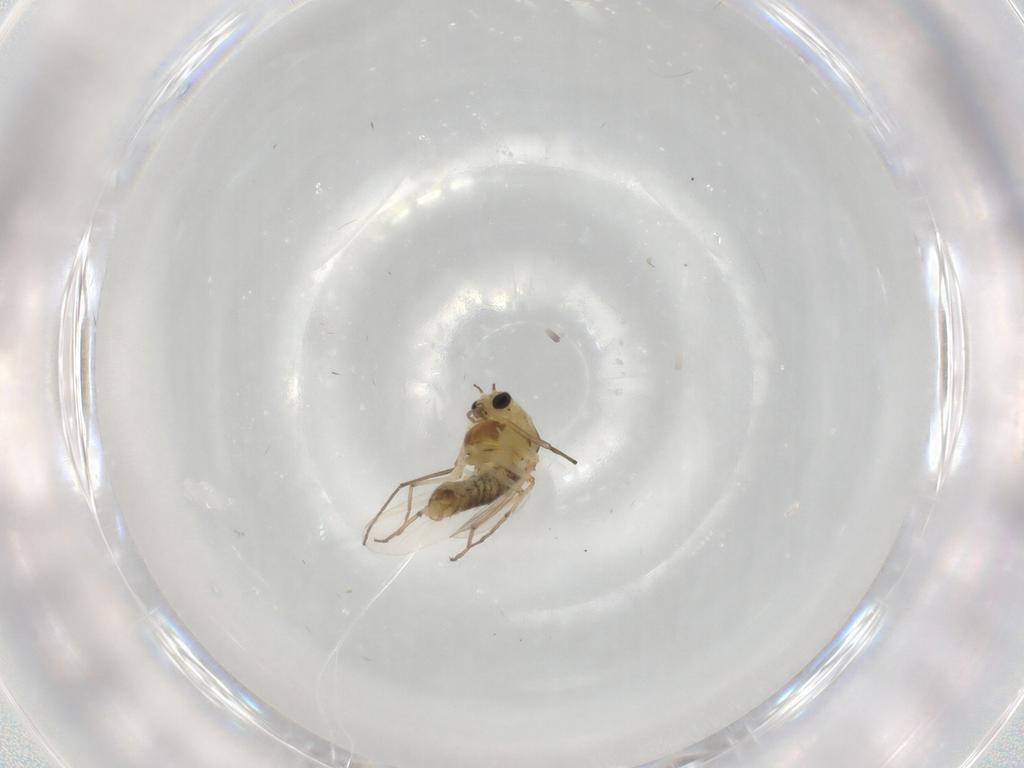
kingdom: Animalia
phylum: Arthropoda
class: Insecta
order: Diptera
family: Chironomidae
